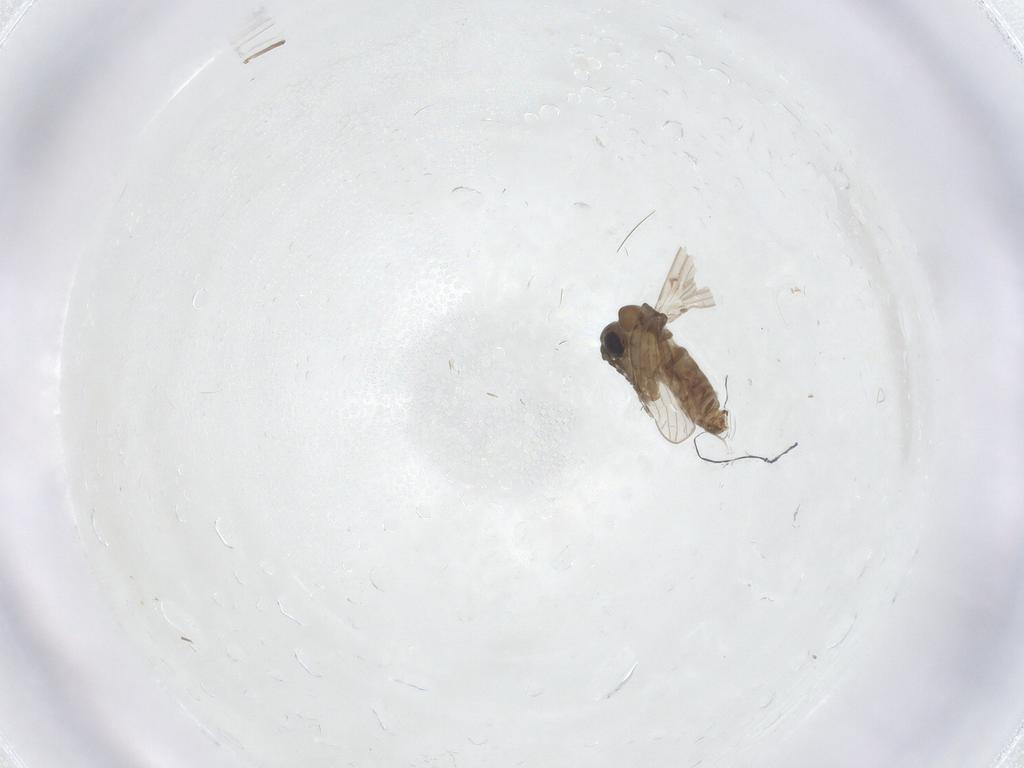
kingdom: Animalia
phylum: Arthropoda
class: Insecta
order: Diptera
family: Psychodidae
